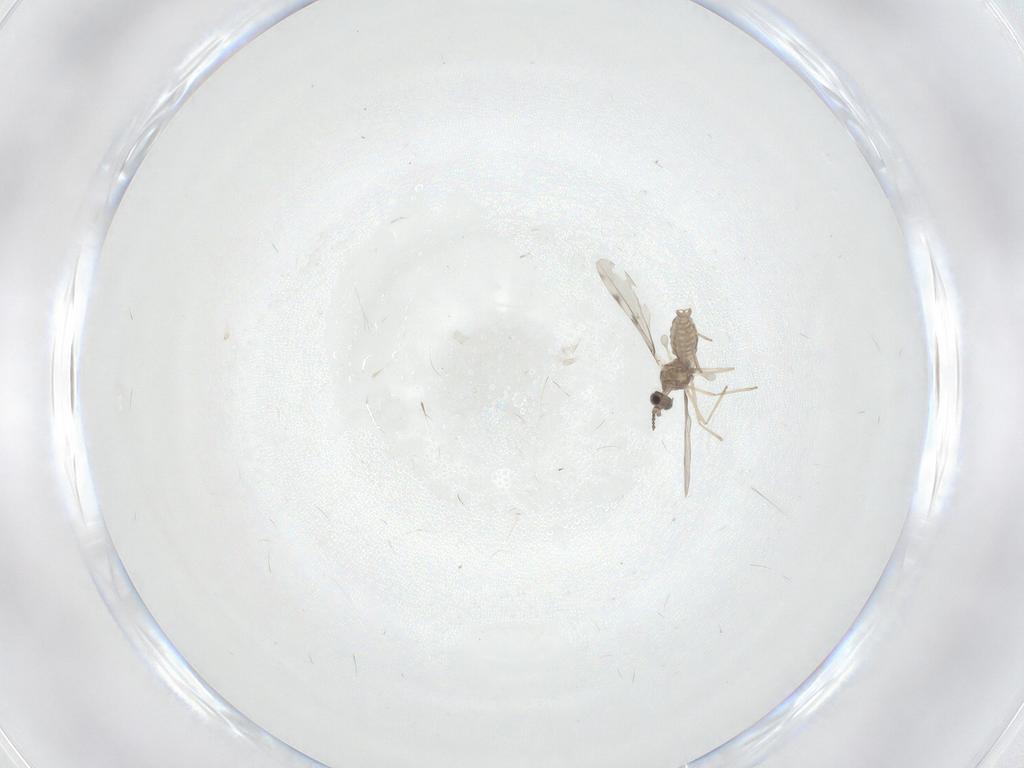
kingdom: Animalia
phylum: Arthropoda
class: Insecta
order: Diptera
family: Cecidomyiidae
